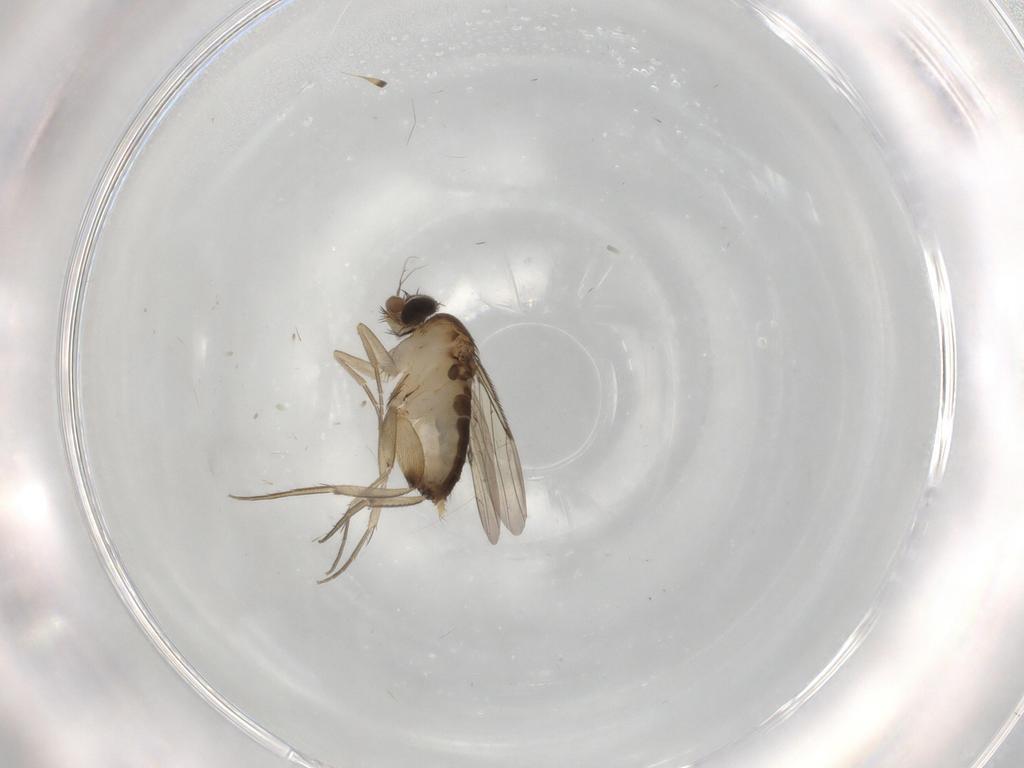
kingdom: Animalia
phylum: Arthropoda
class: Insecta
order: Diptera
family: Phoridae
